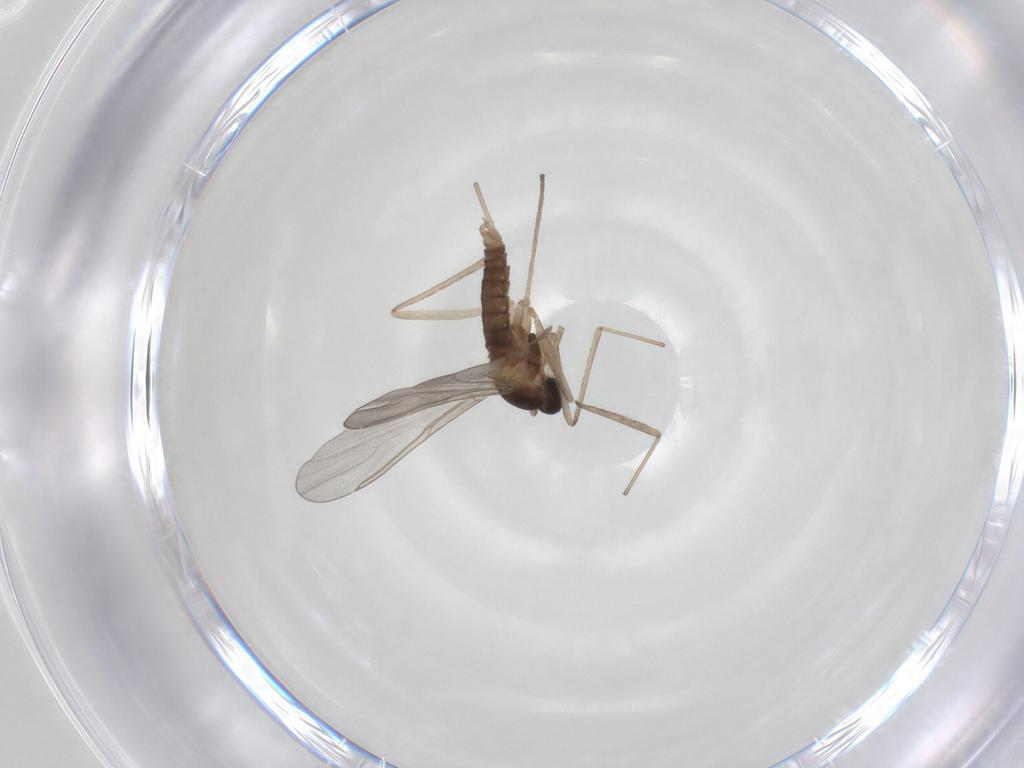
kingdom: Animalia
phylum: Arthropoda
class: Insecta
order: Diptera
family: Cecidomyiidae
